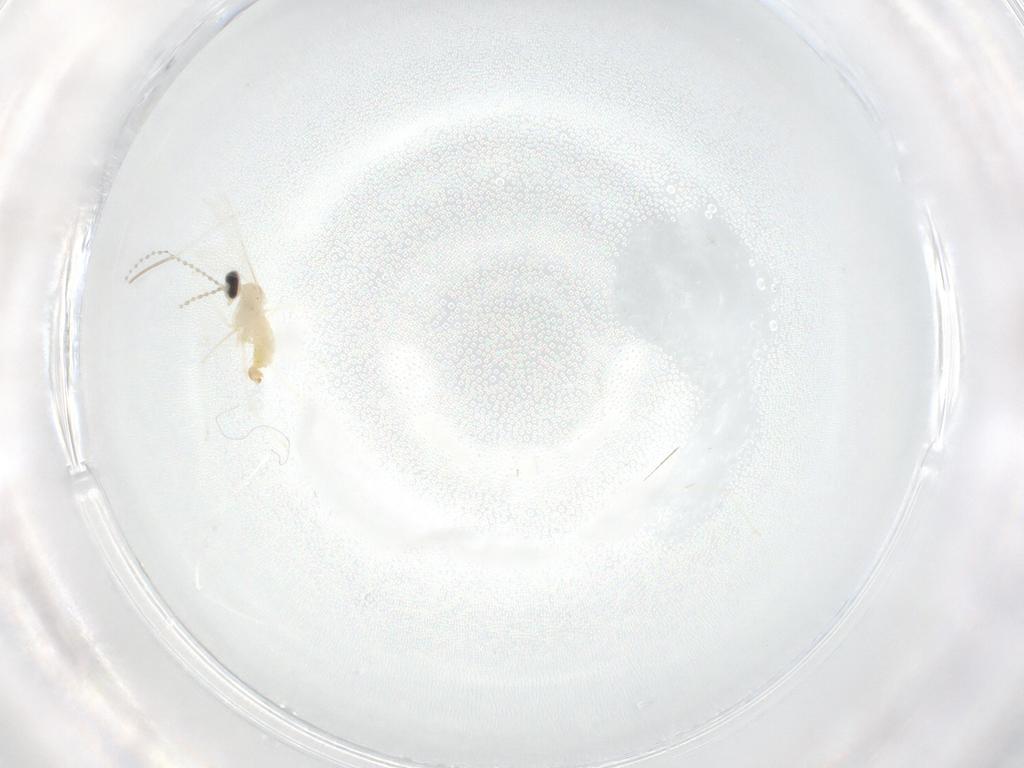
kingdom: Animalia
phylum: Arthropoda
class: Insecta
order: Diptera
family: Cecidomyiidae
